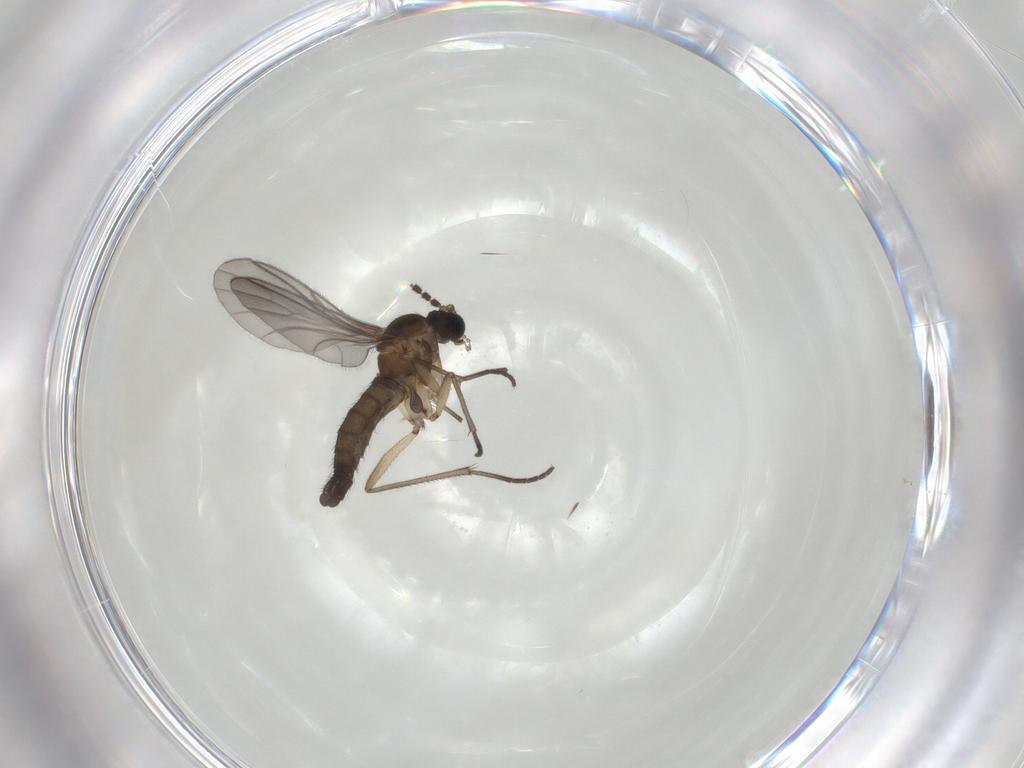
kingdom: Animalia
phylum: Arthropoda
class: Insecta
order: Diptera
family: Sciaridae
